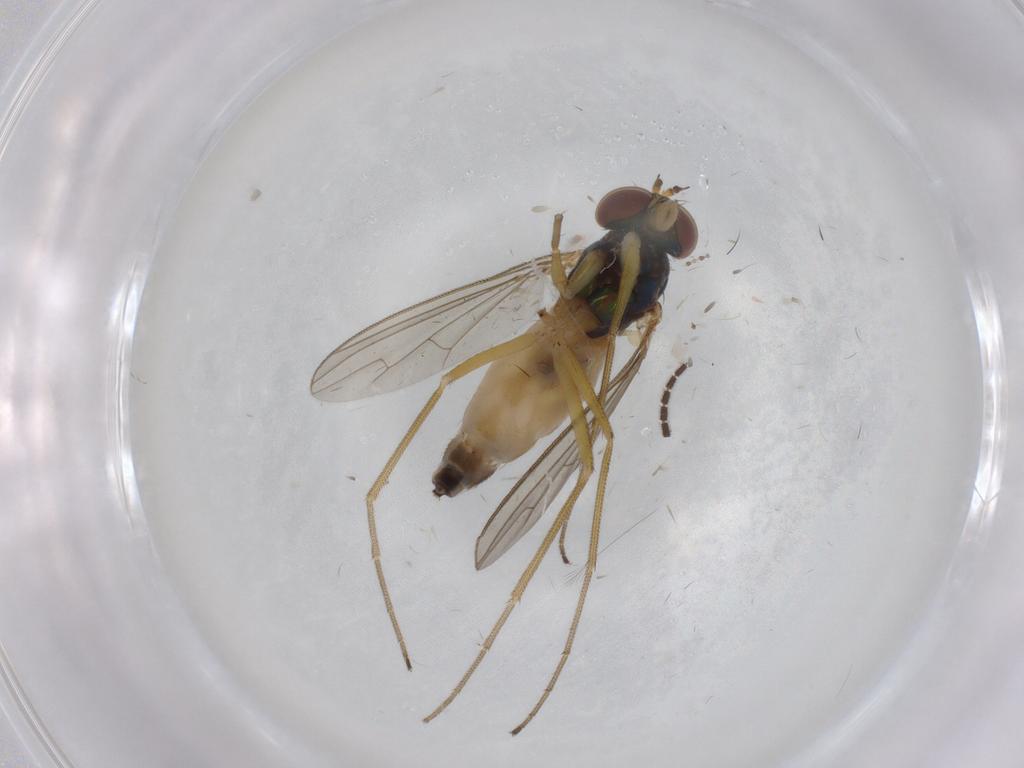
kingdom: Animalia
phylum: Arthropoda
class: Insecta
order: Diptera
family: Dolichopodidae
